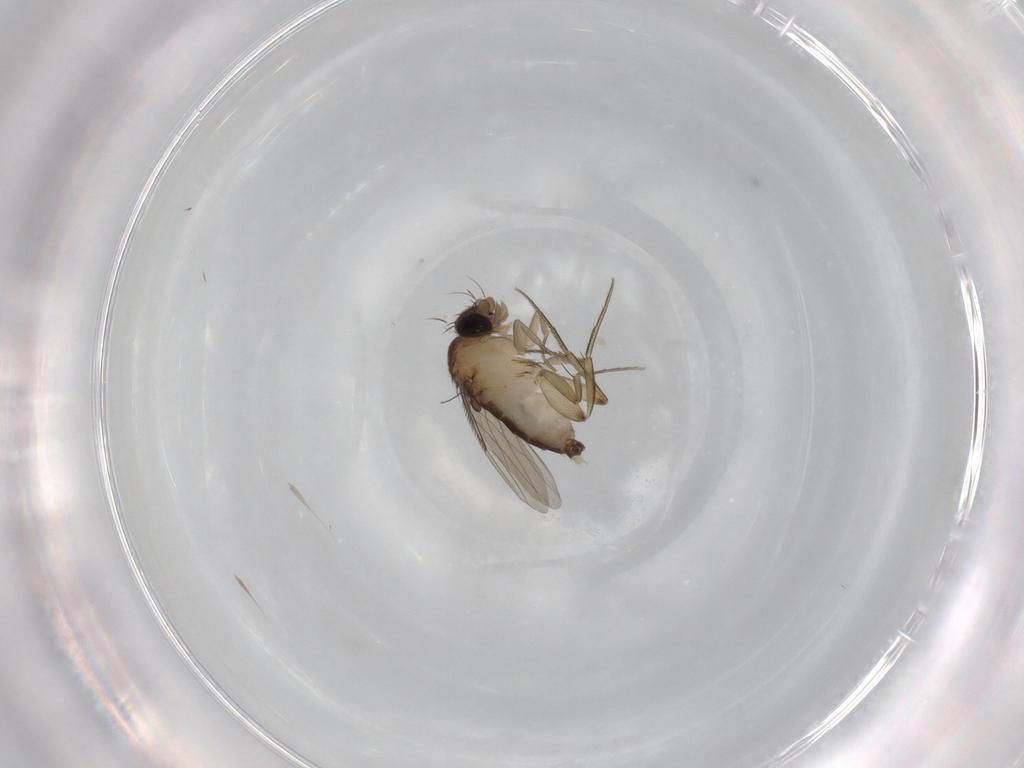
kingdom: Animalia
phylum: Arthropoda
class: Insecta
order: Diptera
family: Phoridae
